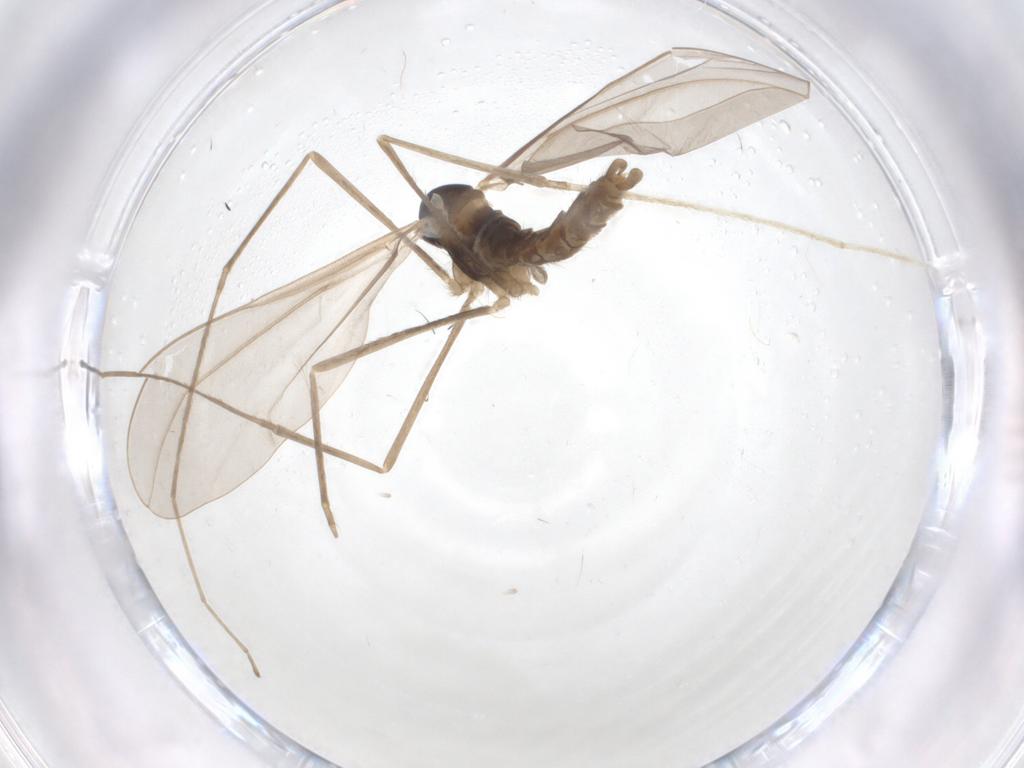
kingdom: Animalia
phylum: Arthropoda
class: Insecta
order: Diptera
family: Cecidomyiidae
